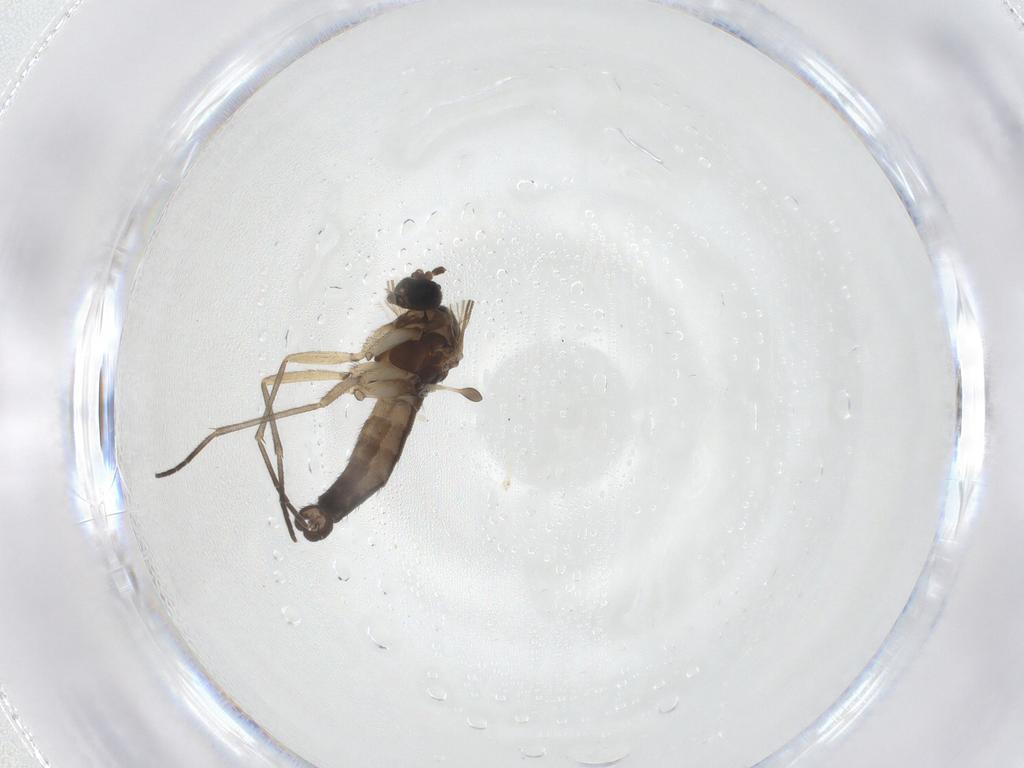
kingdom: Animalia
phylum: Arthropoda
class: Insecta
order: Diptera
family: Sciaridae
